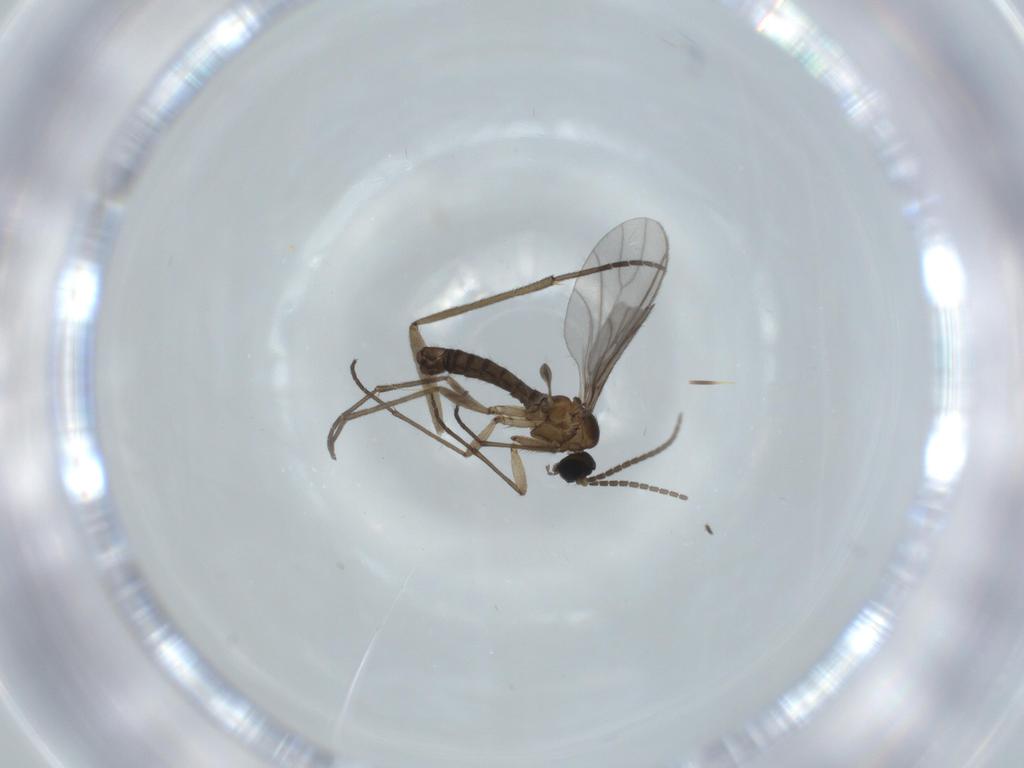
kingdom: Animalia
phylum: Arthropoda
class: Insecta
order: Diptera
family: Sciaridae
